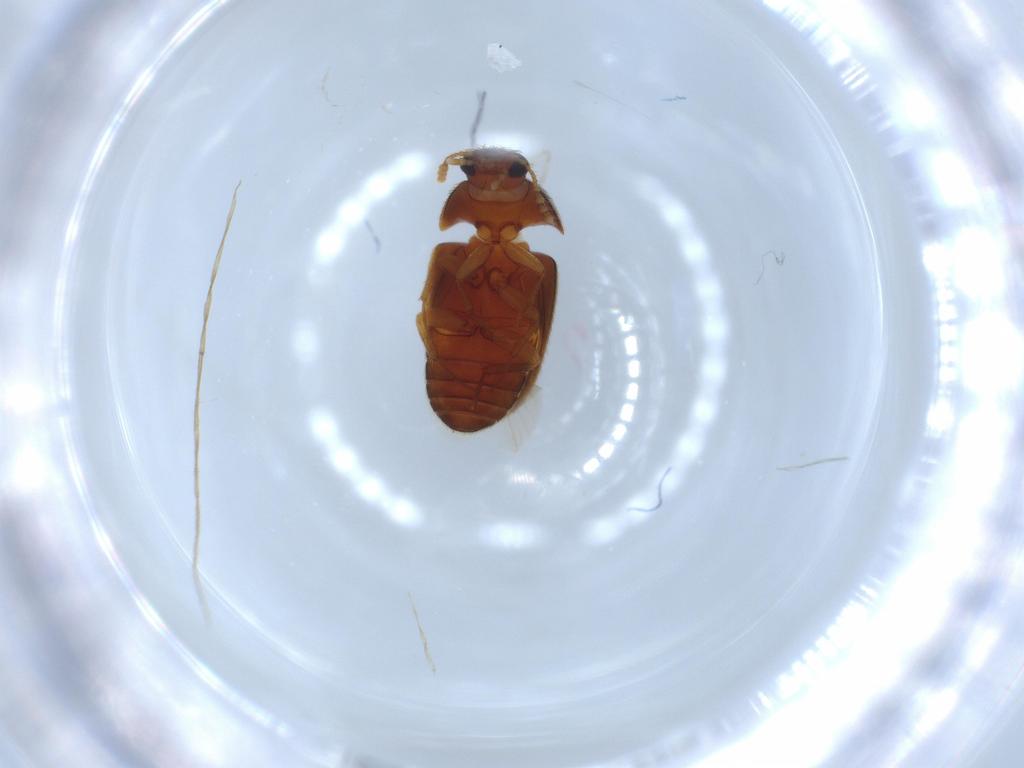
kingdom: Animalia
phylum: Arthropoda
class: Insecta
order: Coleoptera
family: Mycetophagidae
